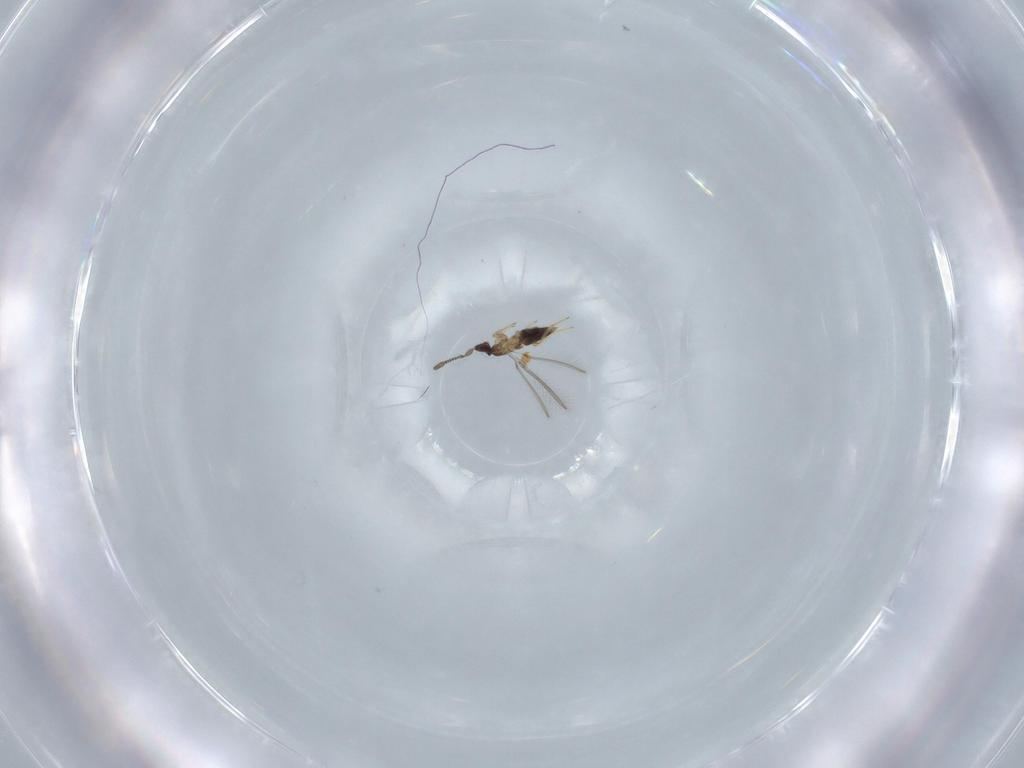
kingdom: Animalia
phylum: Arthropoda
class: Insecta
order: Hymenoptera
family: Mymaridae
